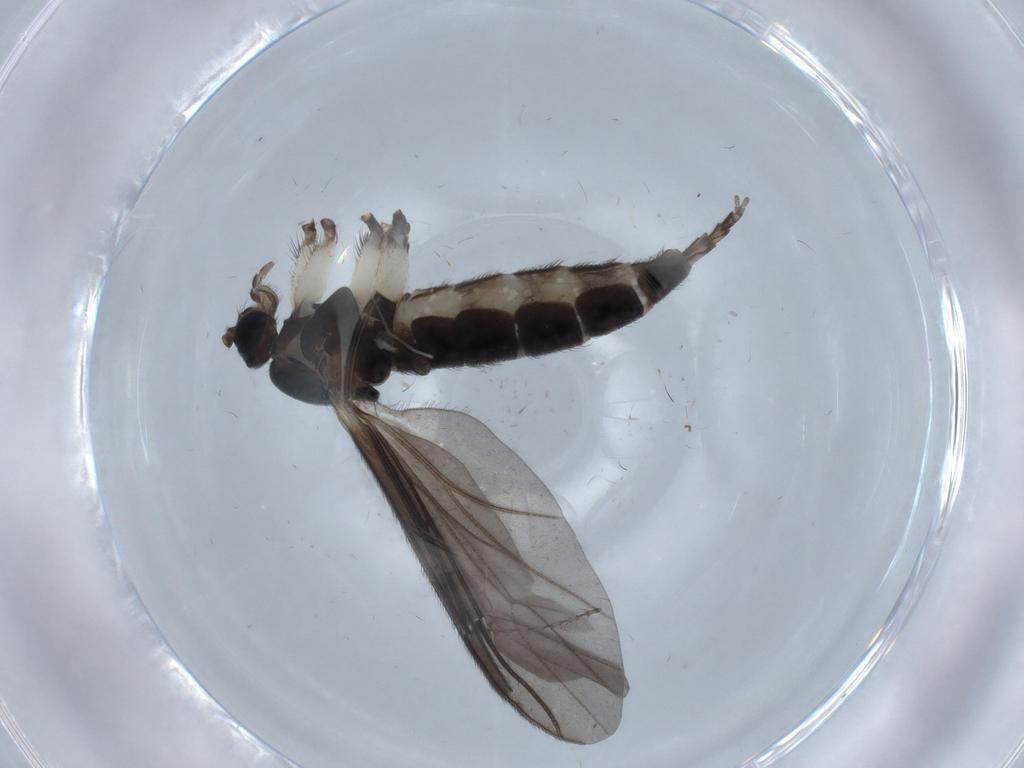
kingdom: Animalia
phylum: Arthropoda
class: Insecta
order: Diptera
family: Sciaridae
